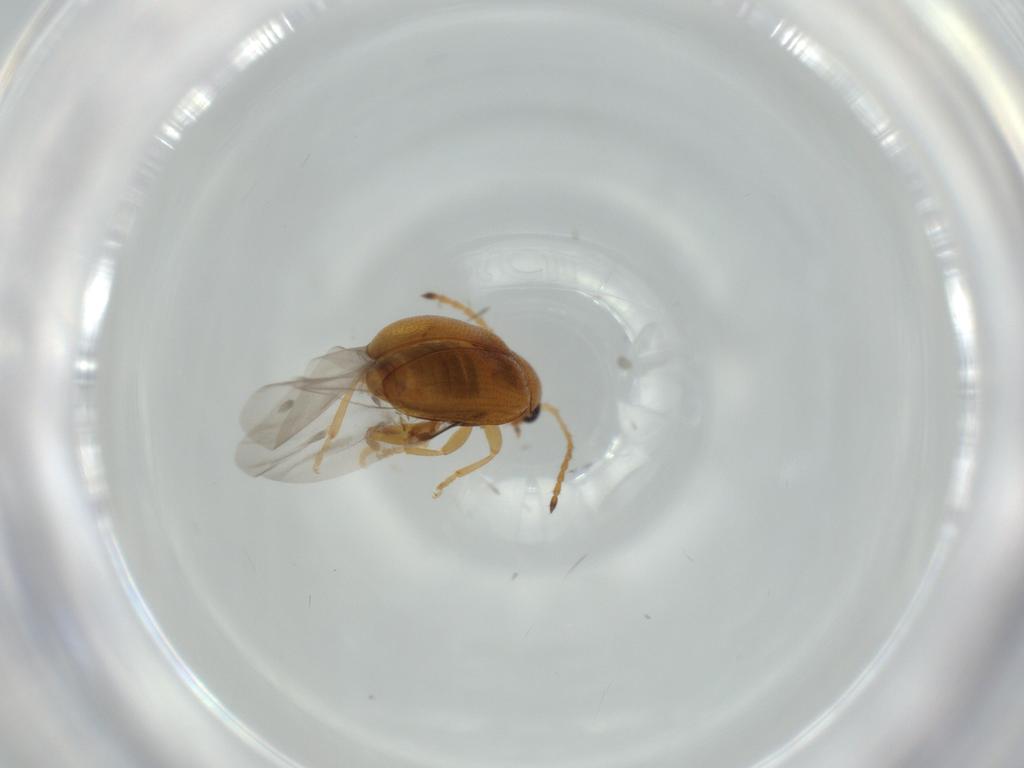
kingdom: Animalia
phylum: Arthropoda
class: Insecta
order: Coleoptera
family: Chrysomelidae
